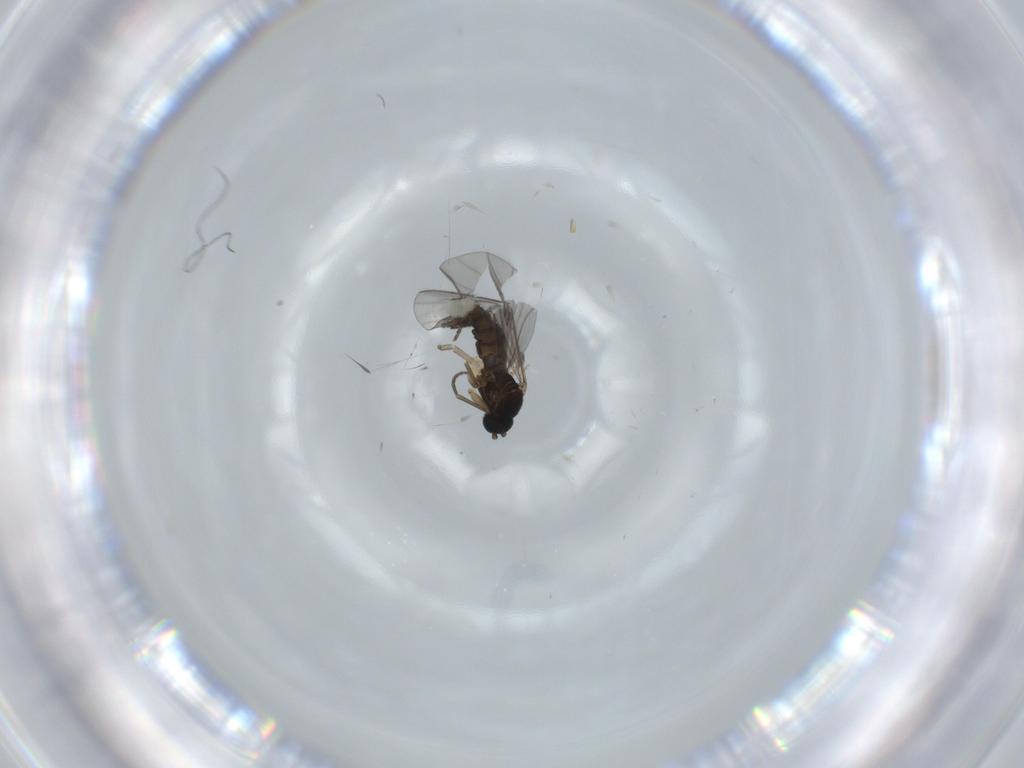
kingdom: Animalia
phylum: Arthropoda
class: Insecta
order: Diptera
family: Sciaridae
